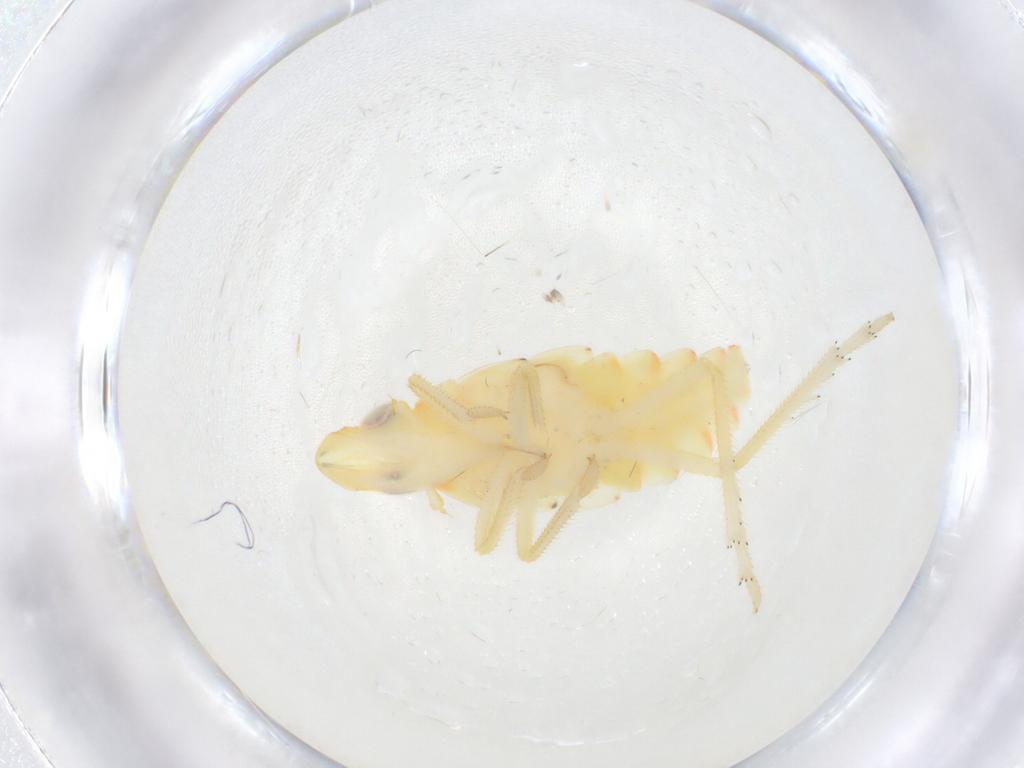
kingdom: Animalia
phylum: Arthropoda
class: Insecta
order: Hemiptera
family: Tropiduchidae
